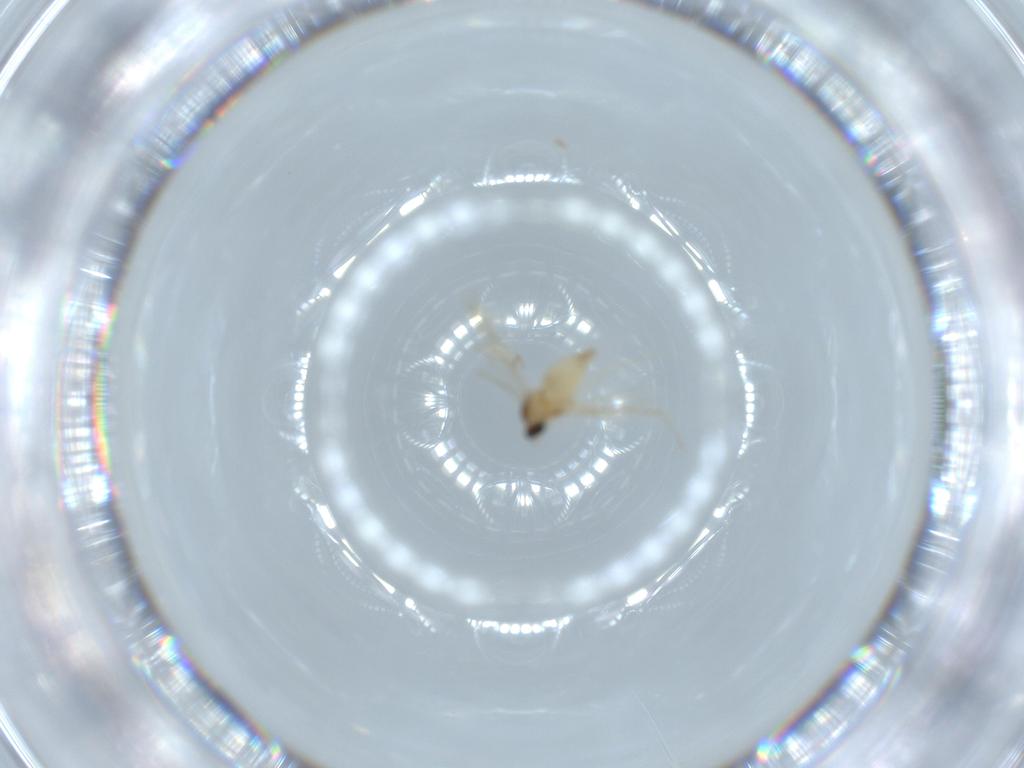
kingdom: Animalia
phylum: Arthropoda
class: Insecta
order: Diptera
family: Cecidomyiidae
